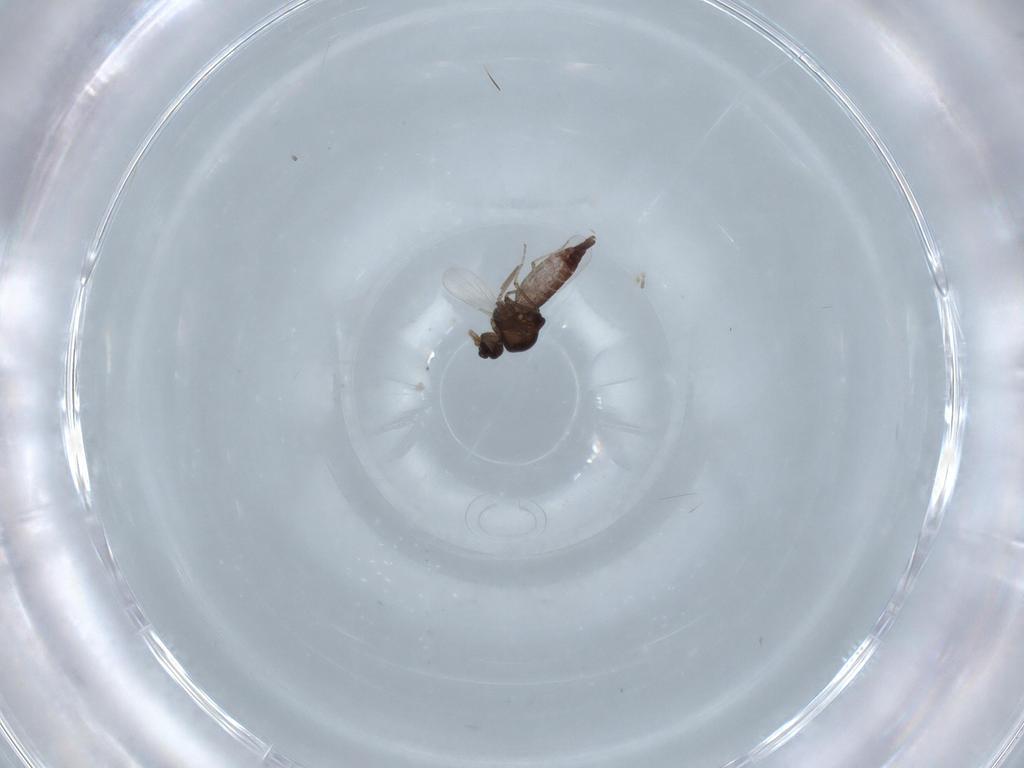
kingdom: Animalia
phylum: Arthropoda
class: Insecta
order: Diptera
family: Ceratopogonidae
